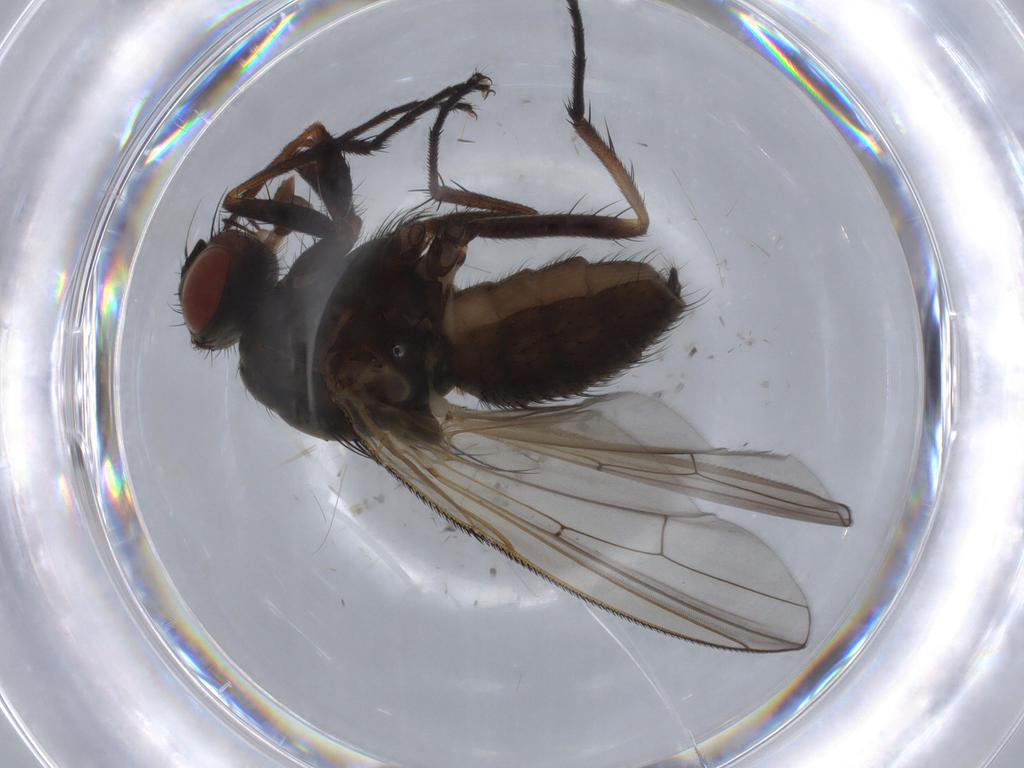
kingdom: Animalia
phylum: Arthropoda
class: Insecta
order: Diptera
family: Anthomyiidae
